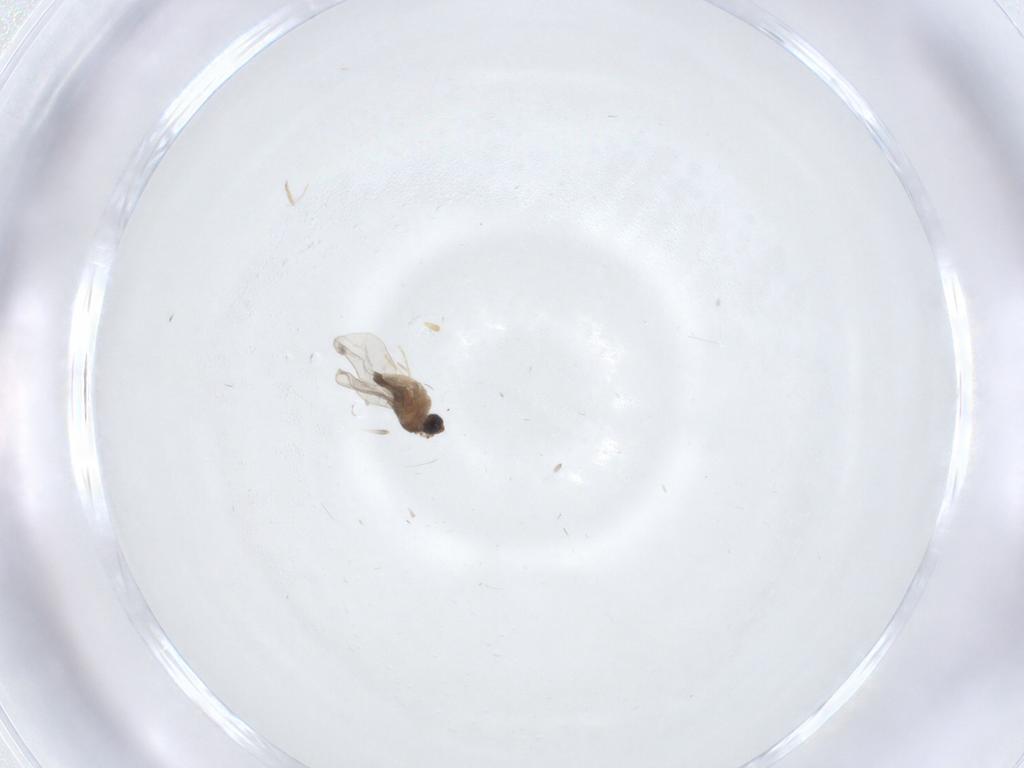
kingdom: Animalia
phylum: Arthropoda
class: Insecta
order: Diptera
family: Cecidomyiidae
